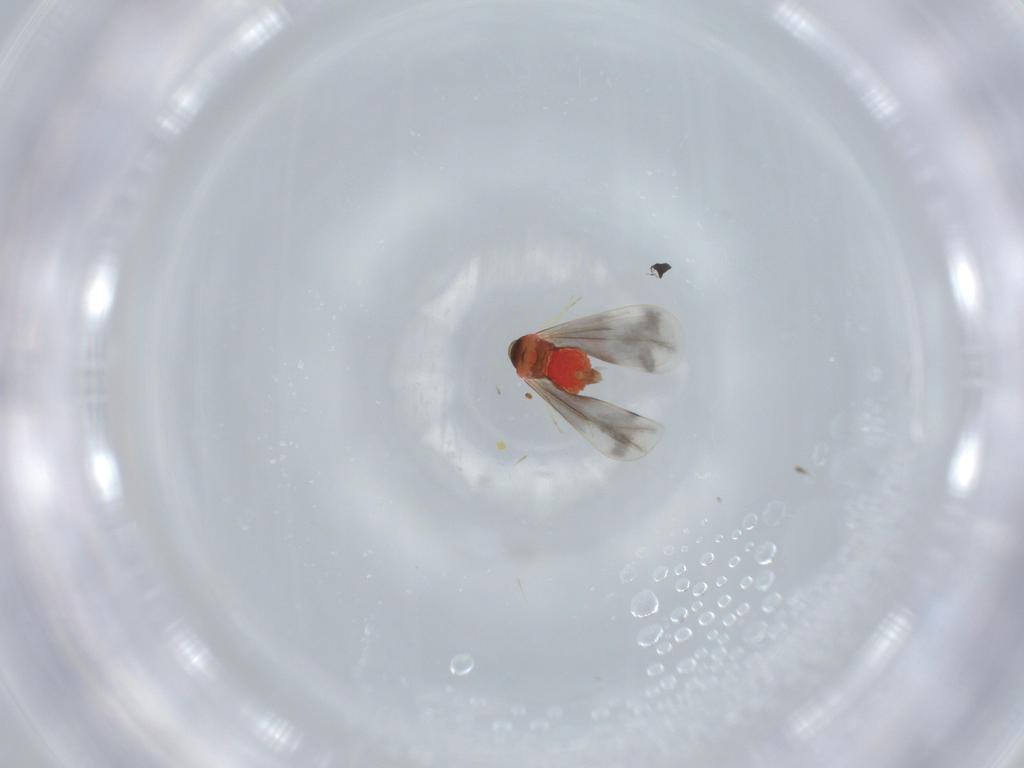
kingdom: Animalia
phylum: Arthropoda
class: Insecta
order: Hemiptera
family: Aleyrodidae
